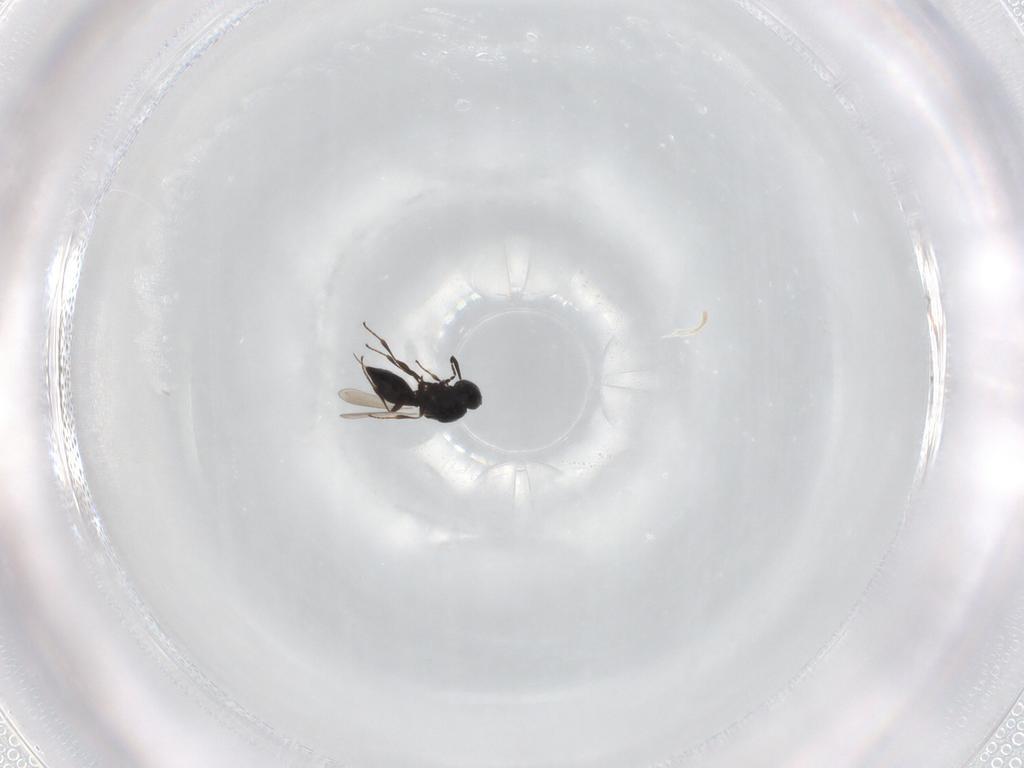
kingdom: Animalia
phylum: Arthropoda
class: Insecta
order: Hymenoptera
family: Platygastridae
